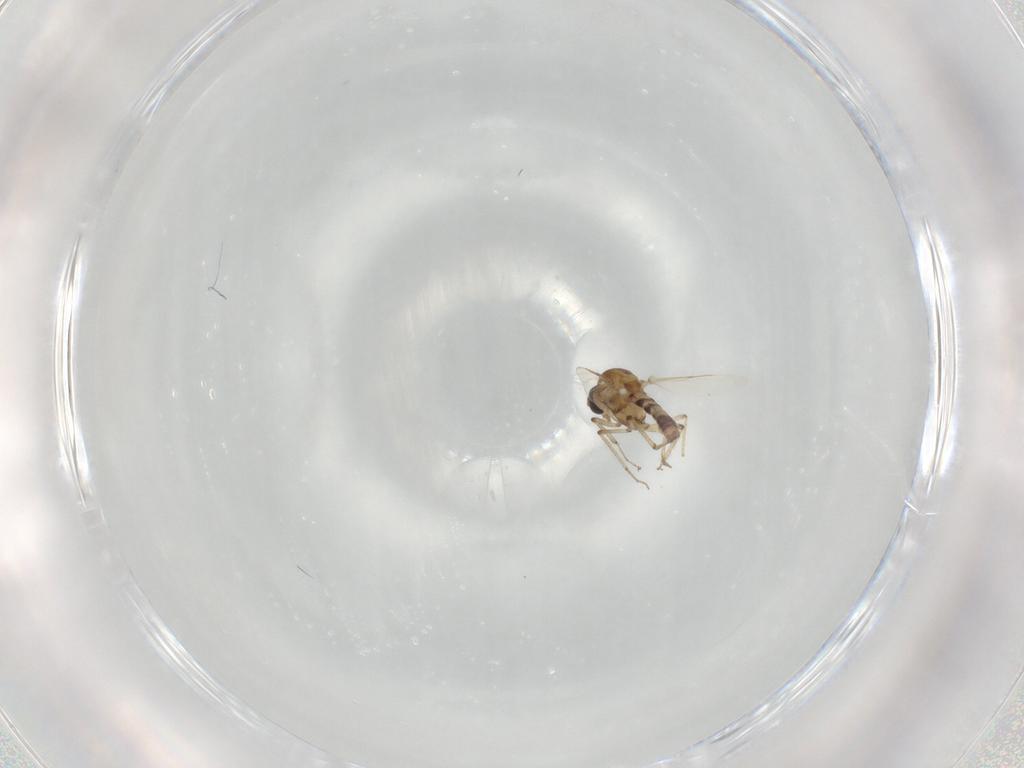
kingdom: Animalia
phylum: Arthropoda
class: Insecta
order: Diptera
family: Ceratopogonidae
